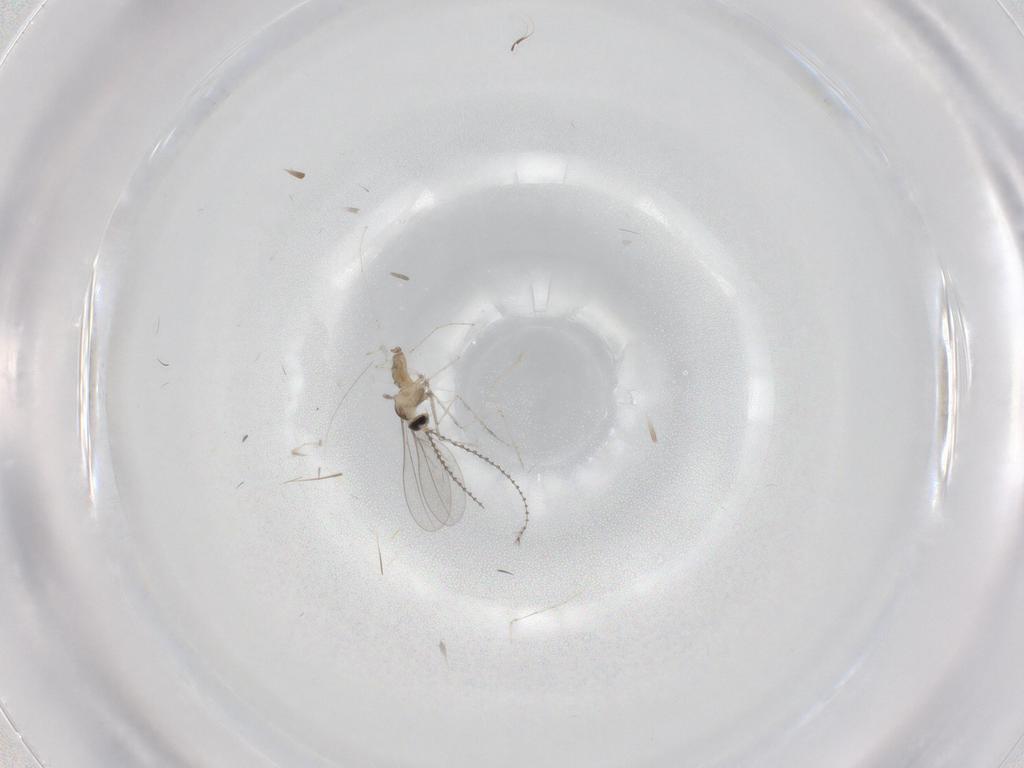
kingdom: Animalia
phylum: Arthropoda
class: Insecta
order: Diptera
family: Cecidomyiidae
